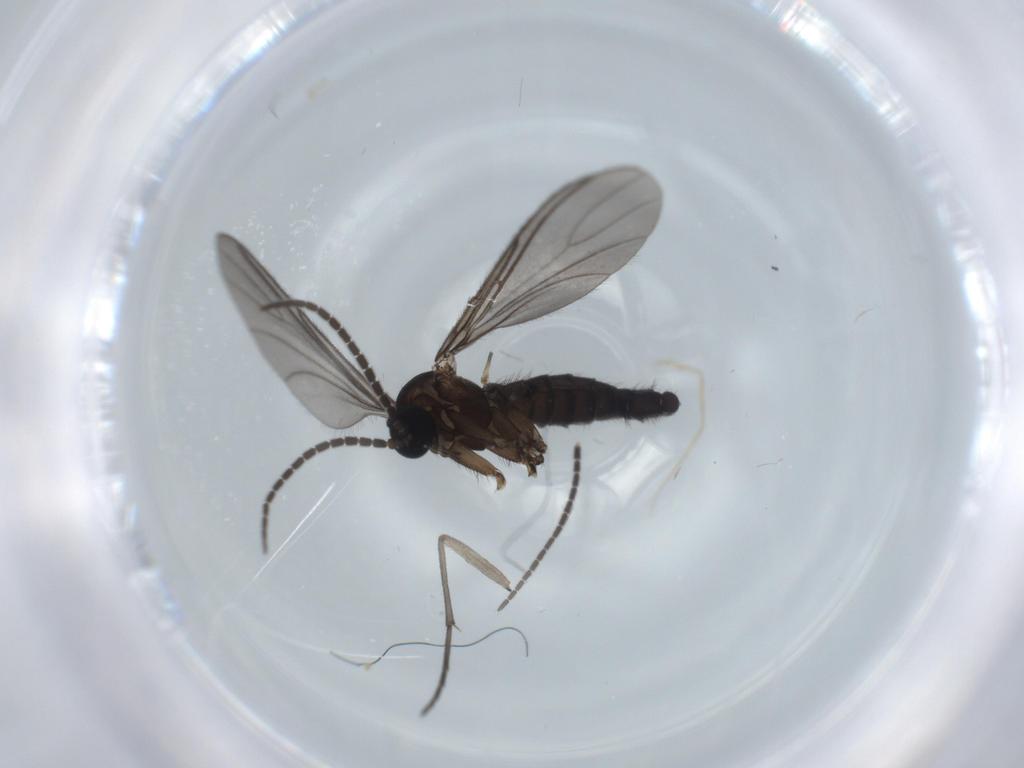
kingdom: Animalia
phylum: Arthropoda
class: Insecta
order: Diptera
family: Sciaridae
